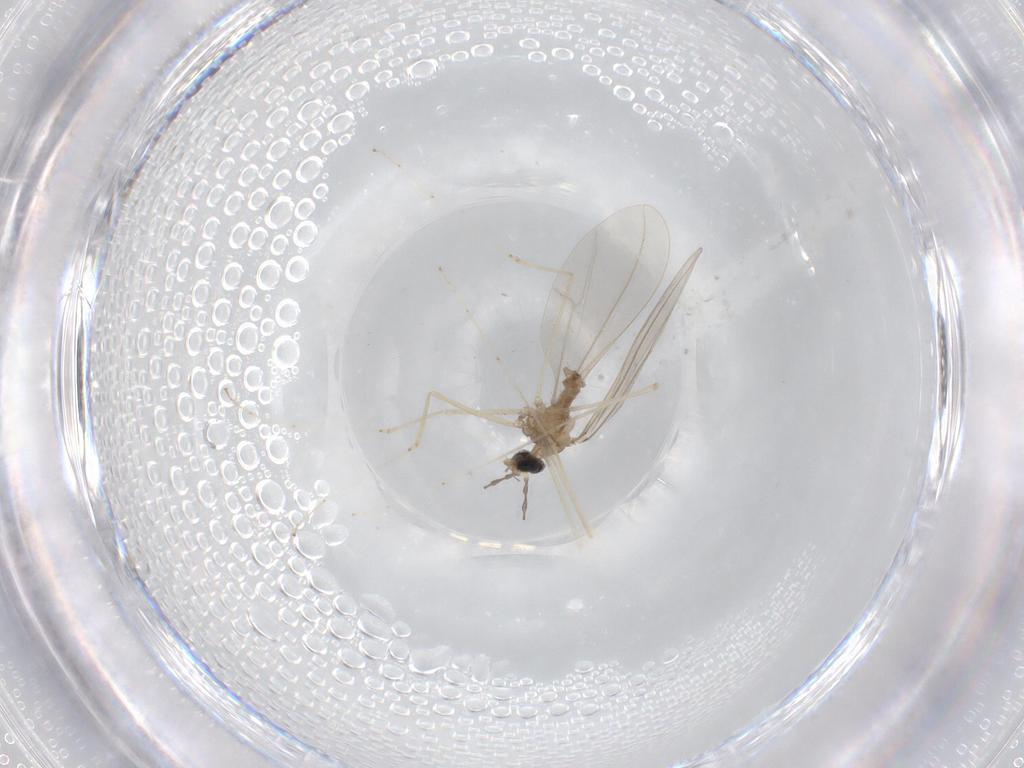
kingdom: Animalia
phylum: Arthropoda
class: Insecta
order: Diptera
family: Cecidomyiidae
